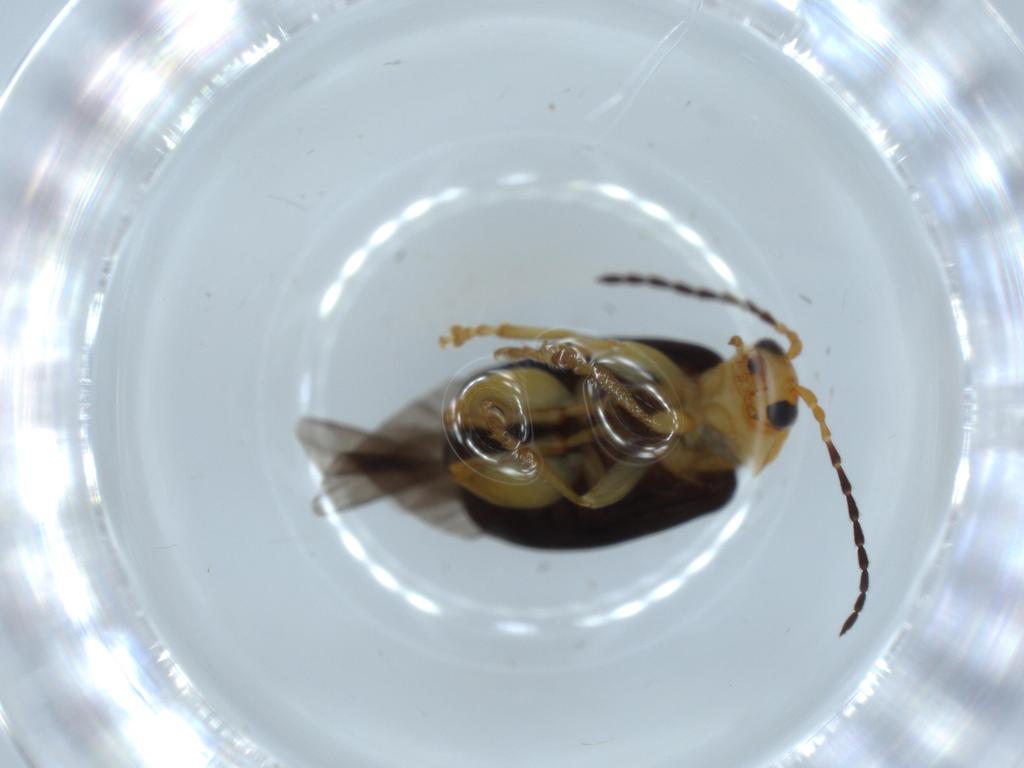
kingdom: Animalia
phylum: Arthropoda
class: Insecta
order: Coleoptera
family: Chrysomelidae
